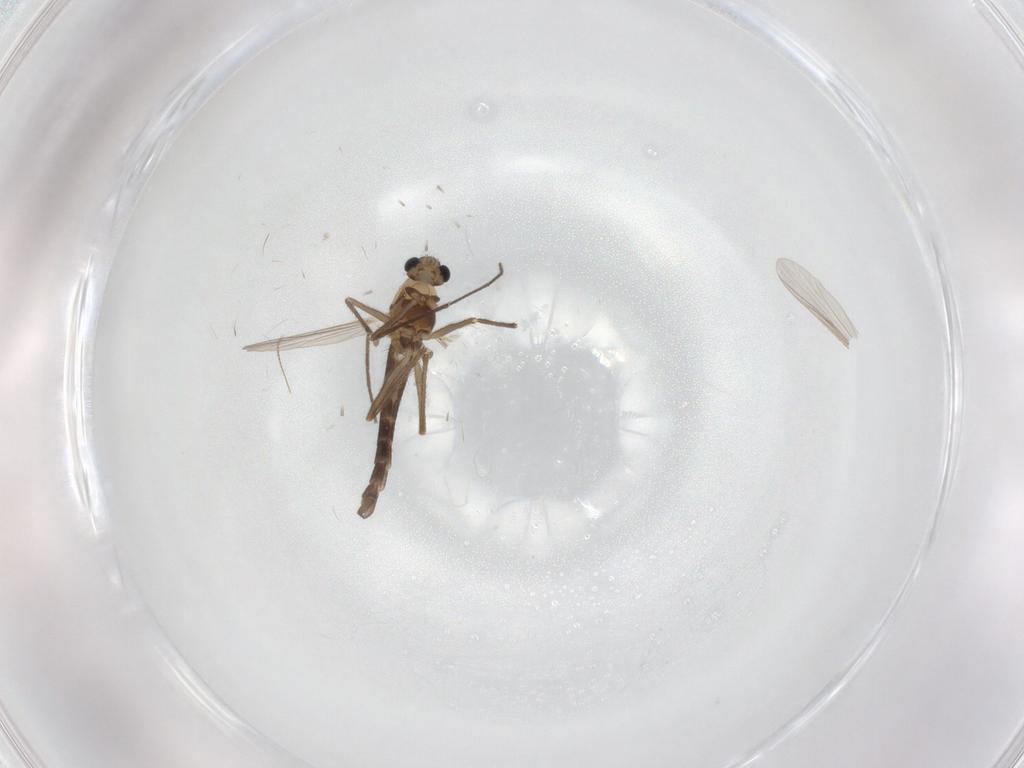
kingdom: Animalia
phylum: Arthropoda
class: Insecta
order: Diptera
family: Chironomidae
